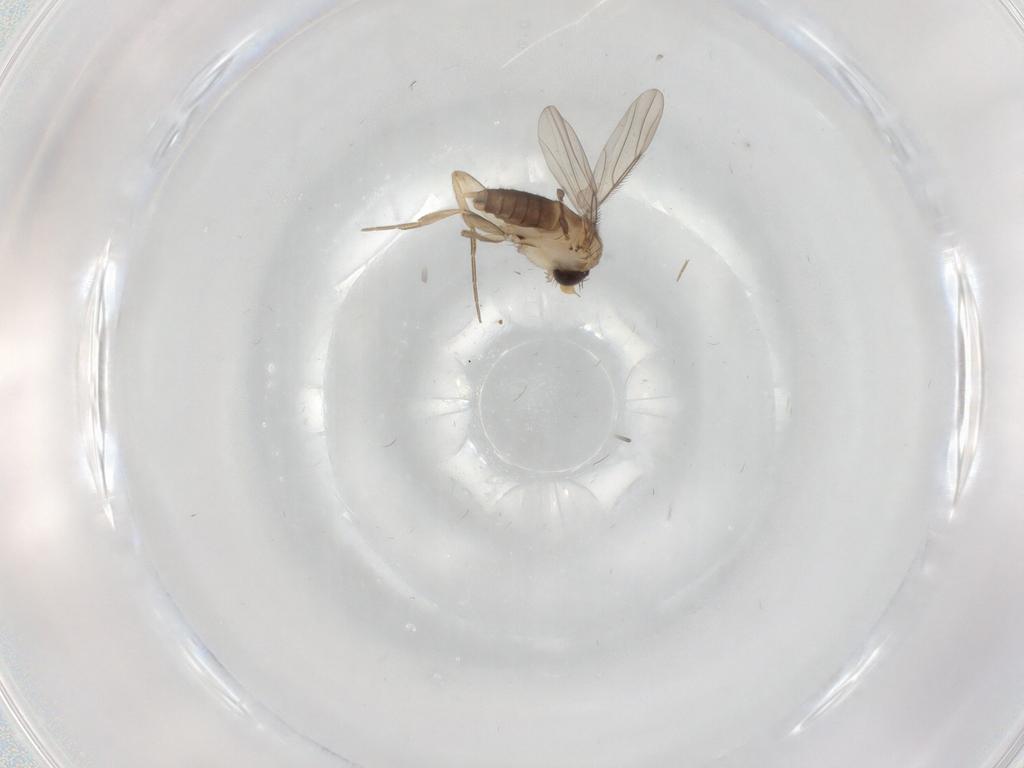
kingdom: Animalia
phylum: Arthropoda
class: Insecta
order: Diptera
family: Phoridae
